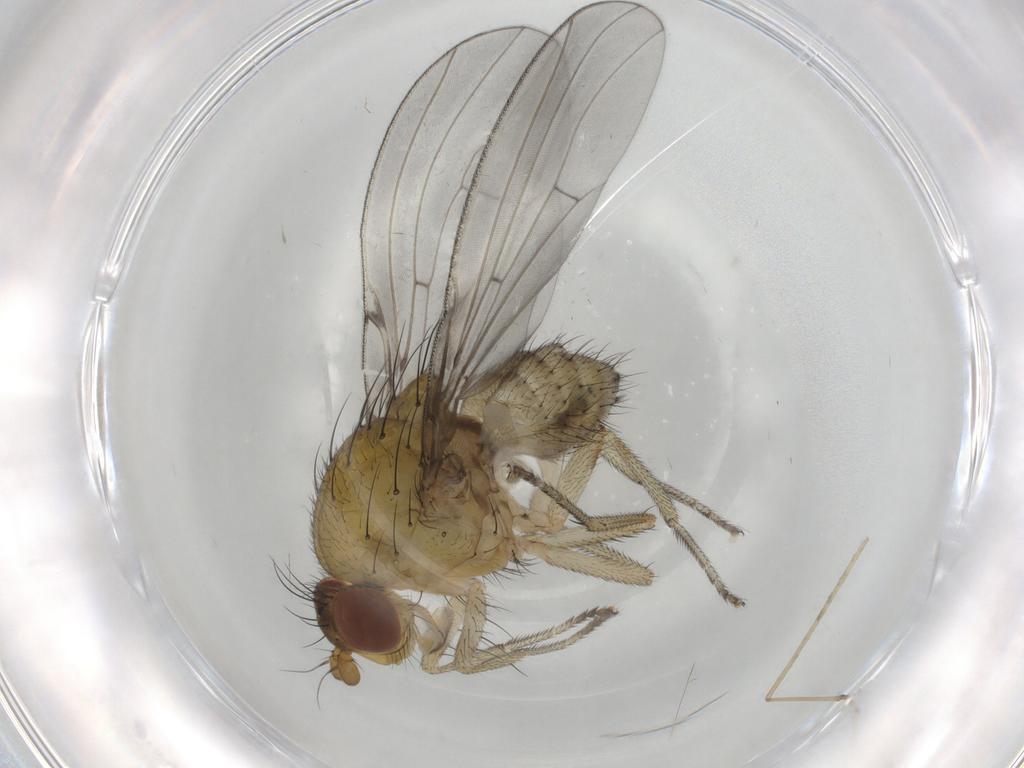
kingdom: Animalia
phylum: Arthropoda
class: Insecta
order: Diptera
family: Cecidomyiidae
